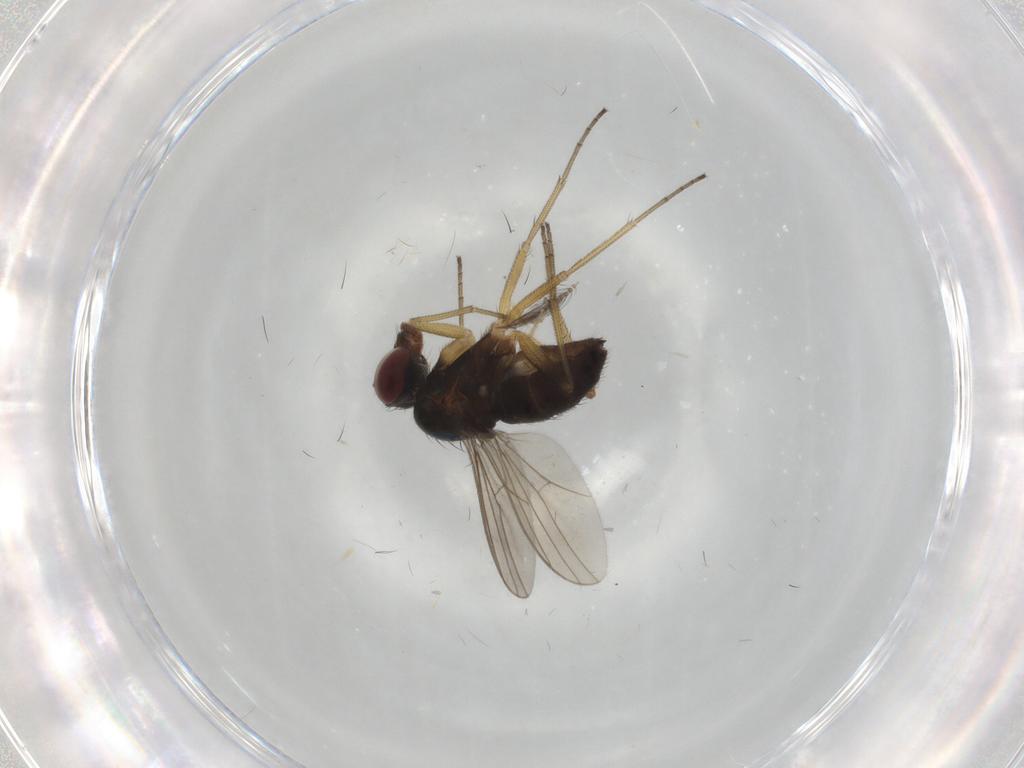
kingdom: Animalia
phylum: Arthropoda
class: Insecta
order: Diptera
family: Dolichopodidae
